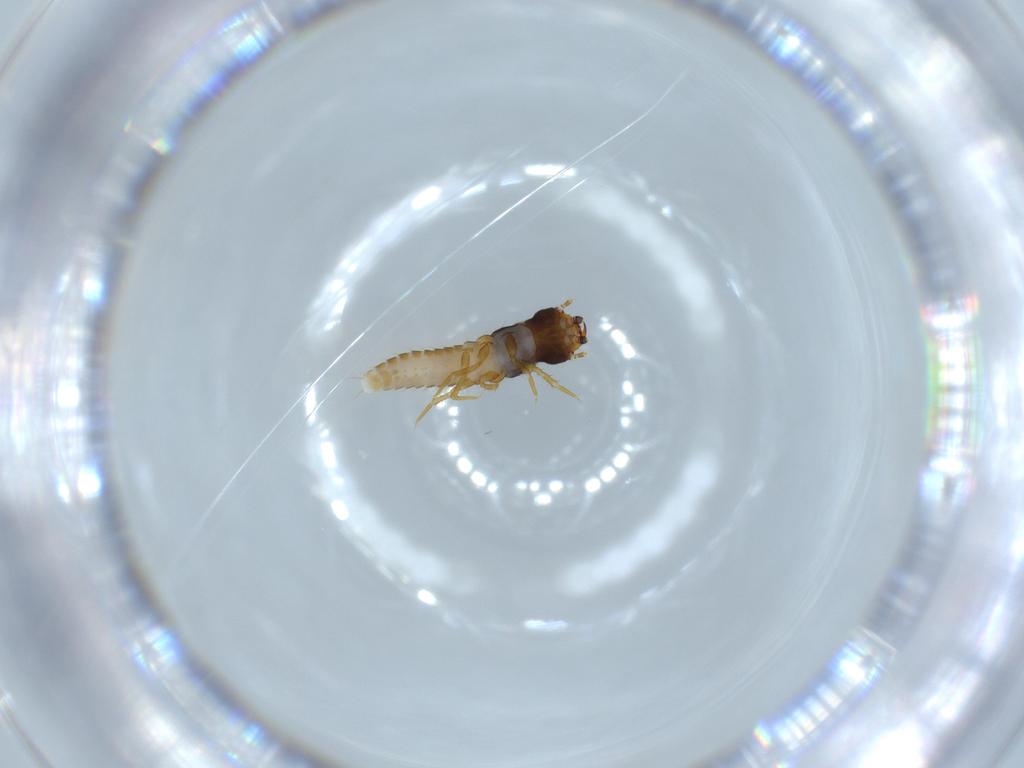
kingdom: Animalia
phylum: Arthropoda
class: Insecta
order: Coleoptera
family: Meloidae
